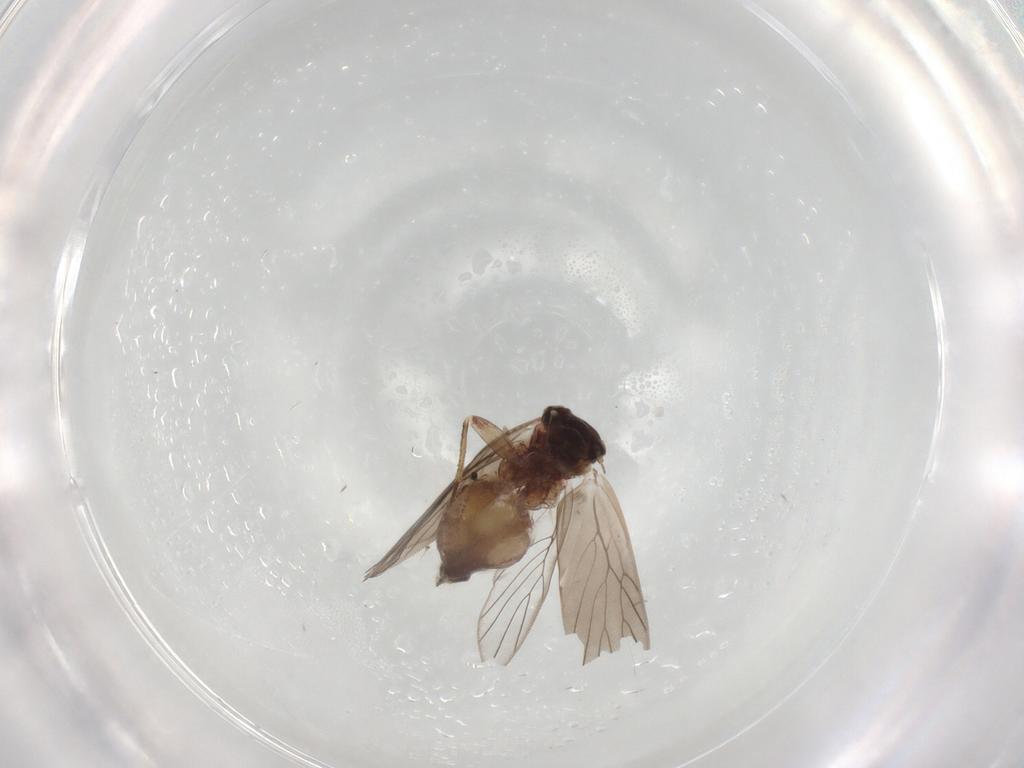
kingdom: Animalia
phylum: Arthropoda
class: Insecta
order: Psocodea
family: Lepidopsocidae
